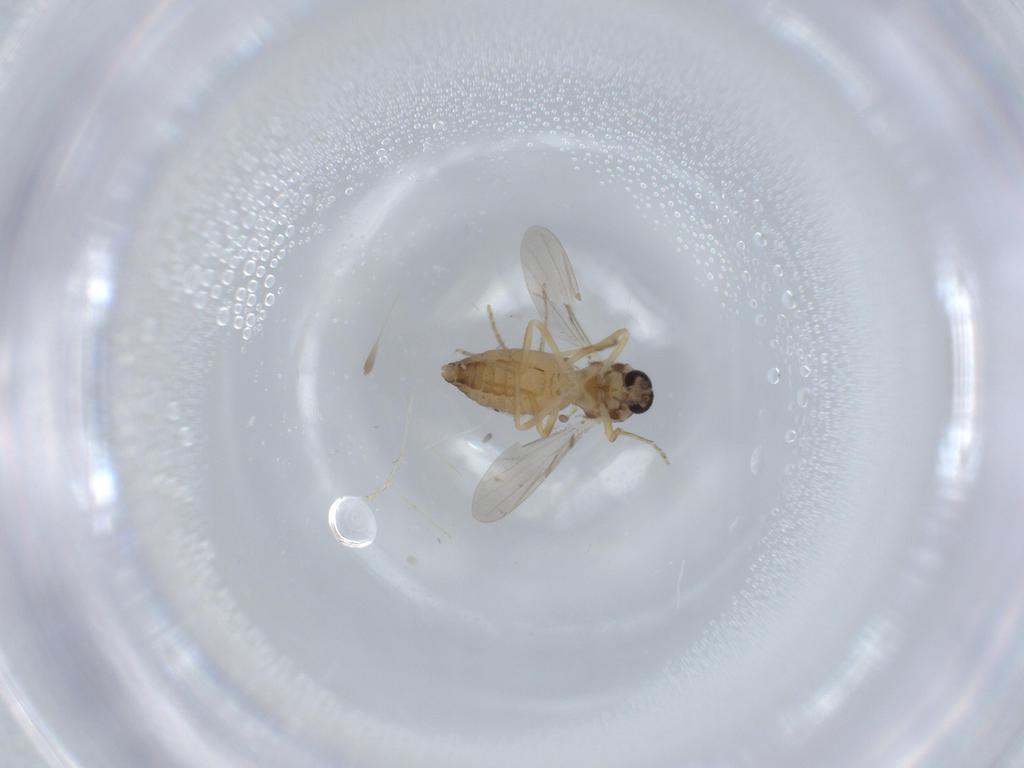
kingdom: Animalia
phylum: Arthropoda
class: Insecta
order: Diptera
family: Ceratopogonidae
